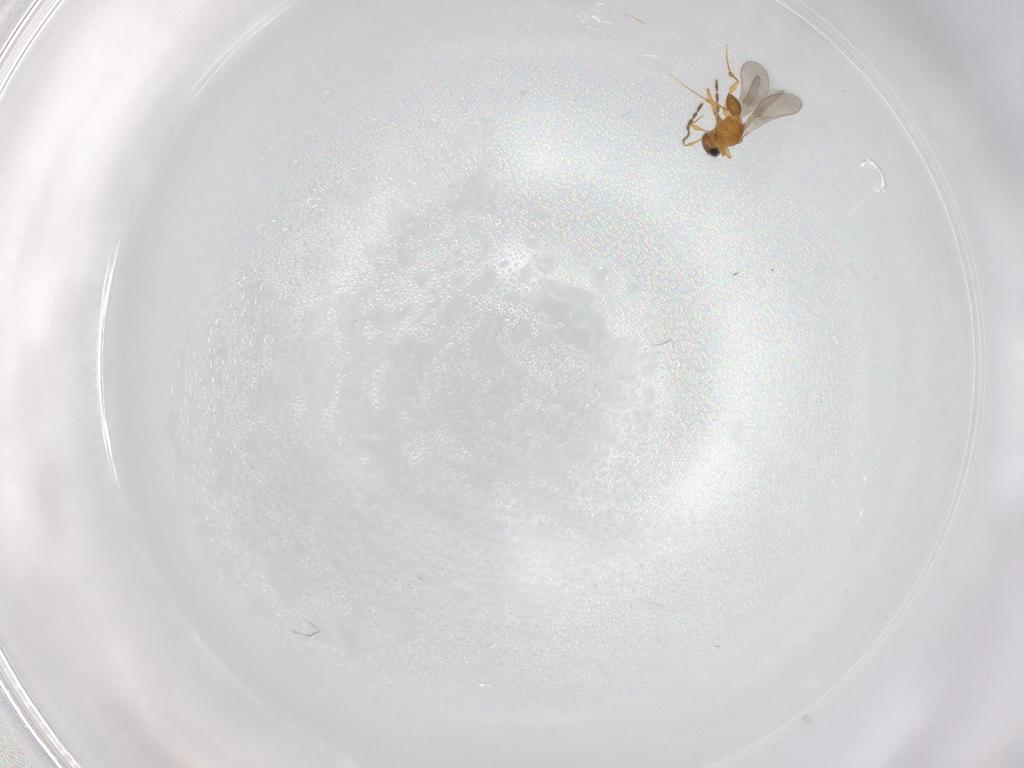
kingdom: Animalia
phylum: Arthropoda
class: Insecta
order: Hymenoptera
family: Platygastridae
